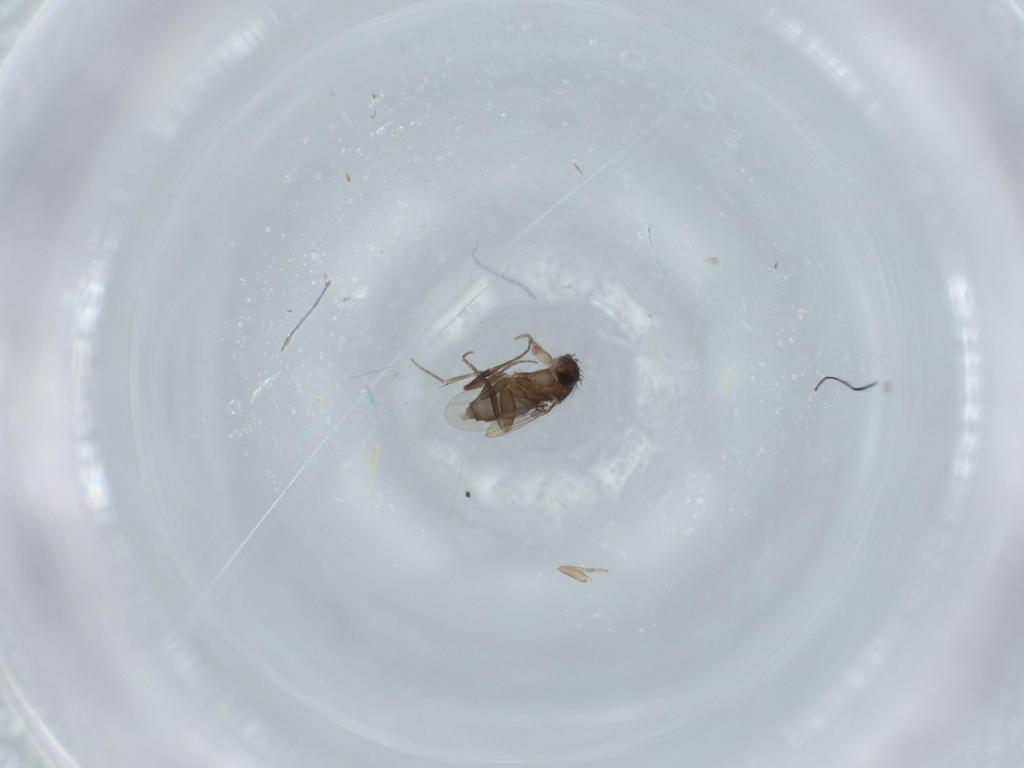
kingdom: Animalia
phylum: Arthropoda
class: Insecta
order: Diptera
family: Phoridae
